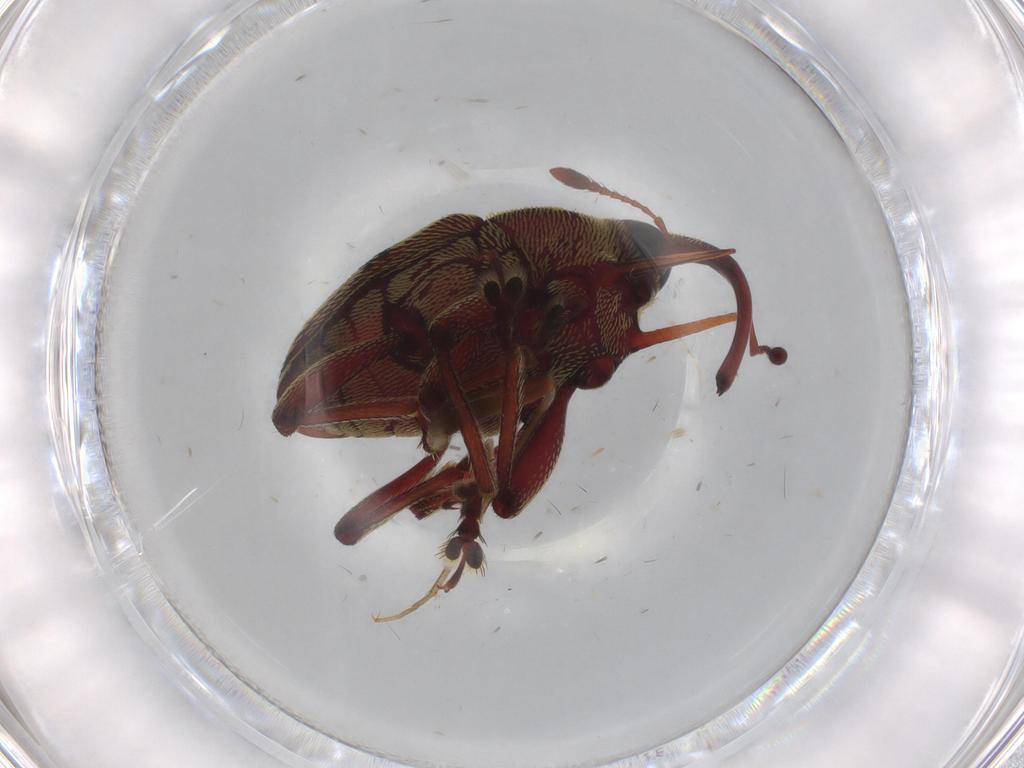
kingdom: Animalia
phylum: Arthropoda
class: Insecta
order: Coleoptera
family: Curculionidae
